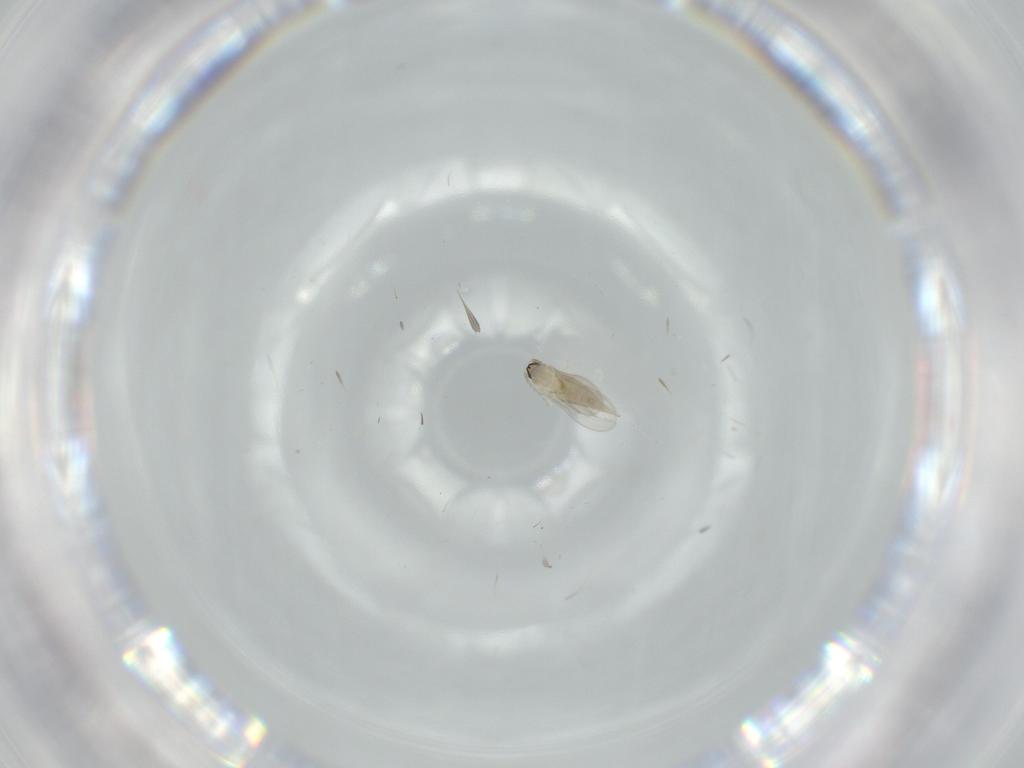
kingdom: Animalia
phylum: Arthropoda
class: Insecta
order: Diptera
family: Cecidomyiidae
